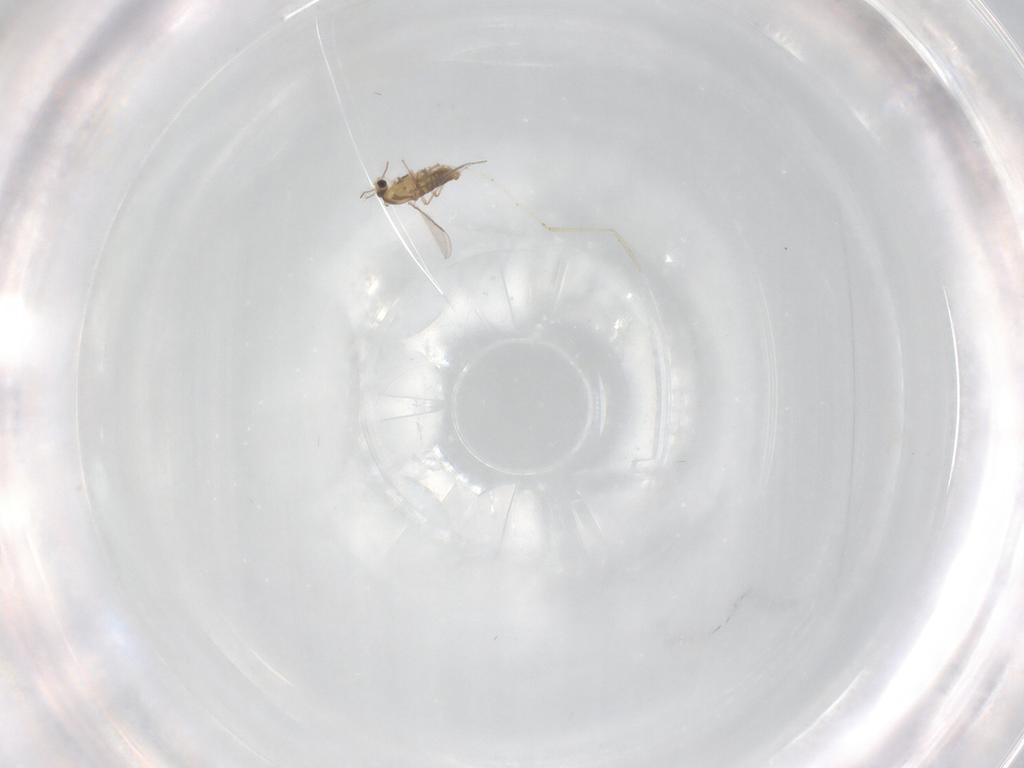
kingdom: Animalia
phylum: Arthropoda
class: Insecta
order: Diptera
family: Chironomidae
